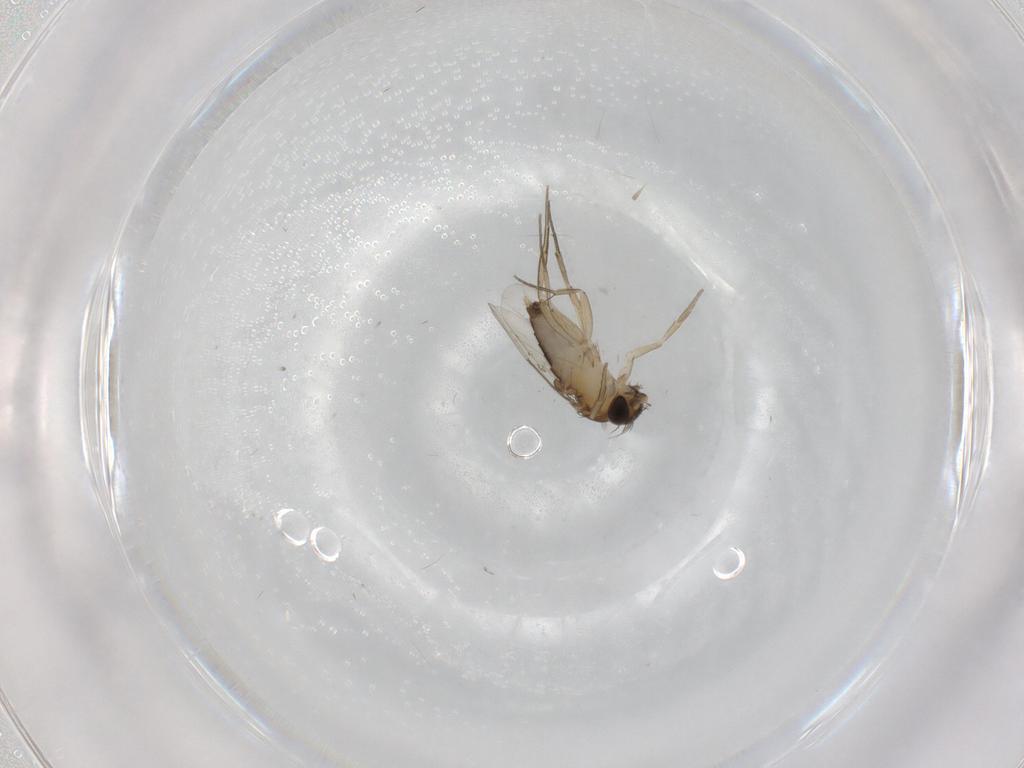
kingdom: Animalia
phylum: Arthropoda
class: Insecta
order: Diptera
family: Phoridae
